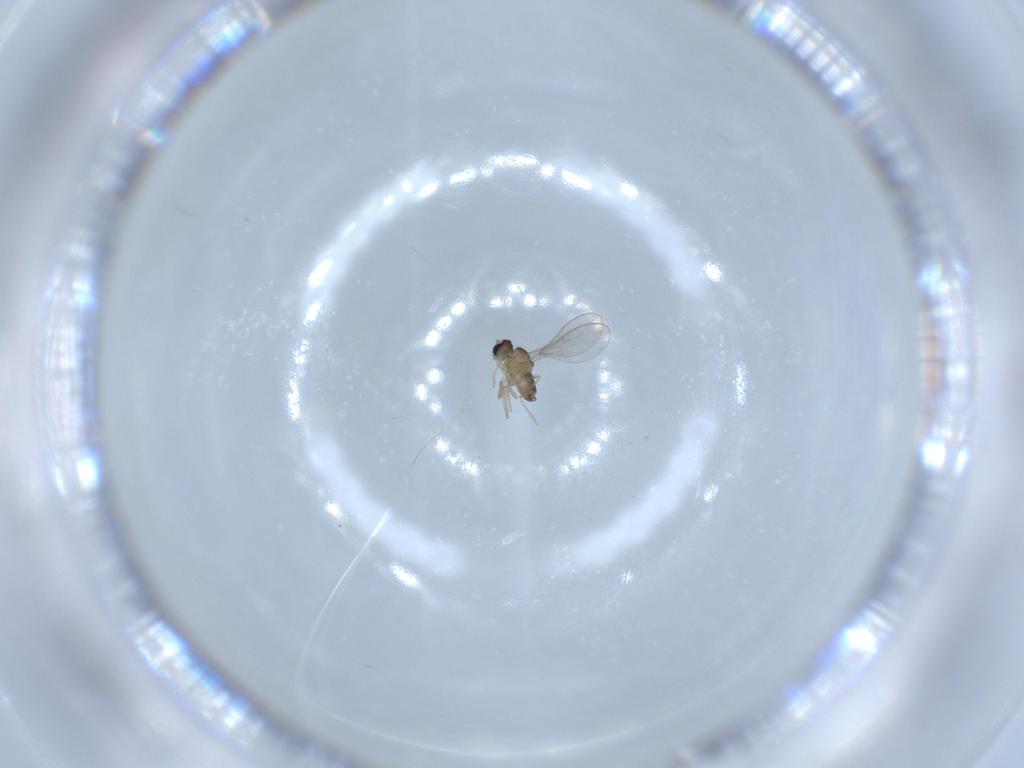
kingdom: Animalia
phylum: Arthropoda
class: Insecta
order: Diptera
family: Cecidomyiidae
